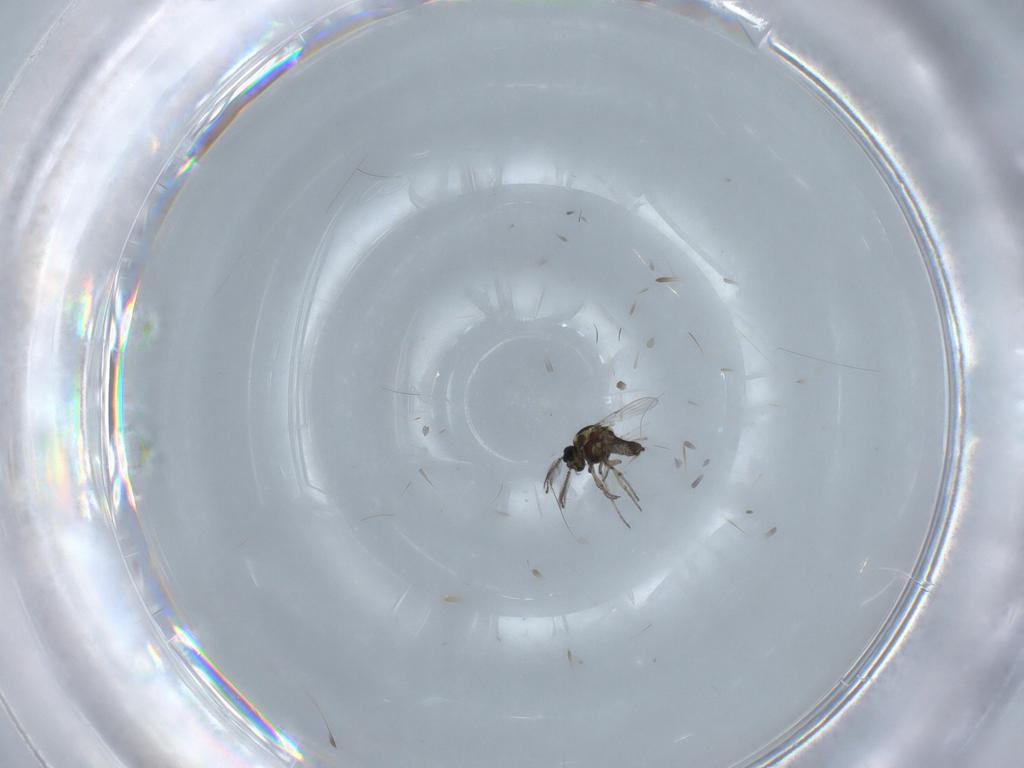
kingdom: Animalia
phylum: Arthropoda
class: Insecta
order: Diptera
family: Ceratopogonidae
